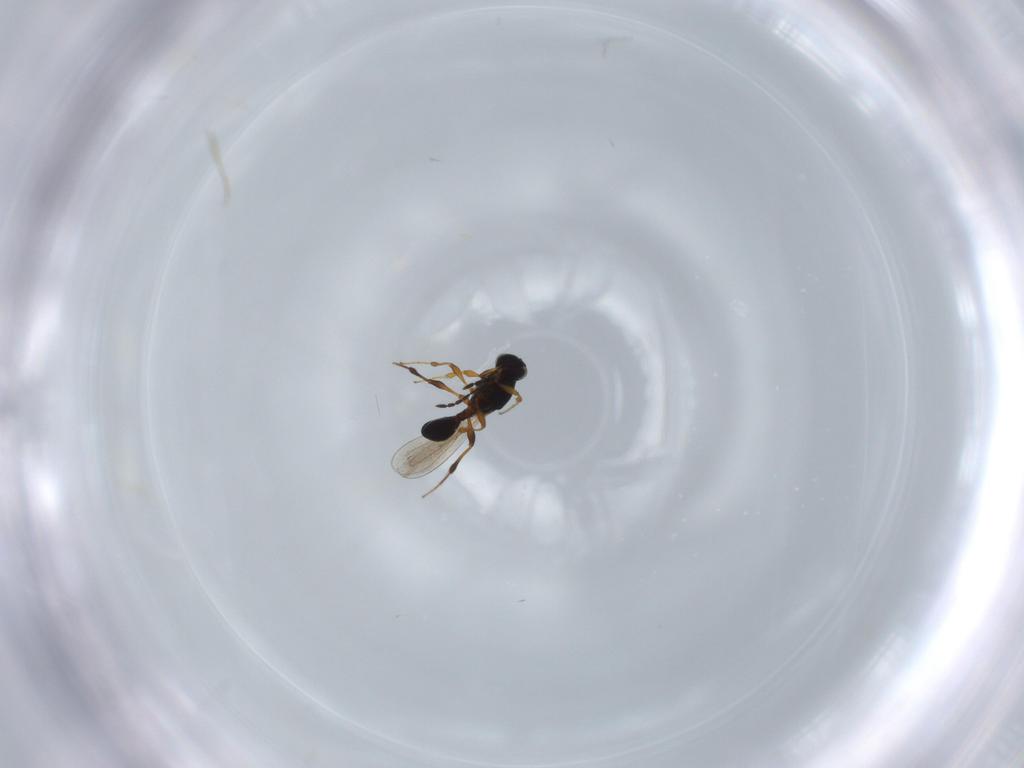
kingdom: Animalia
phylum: Arthropoda
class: Insecta
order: Hymenoptera
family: Platygastridae
